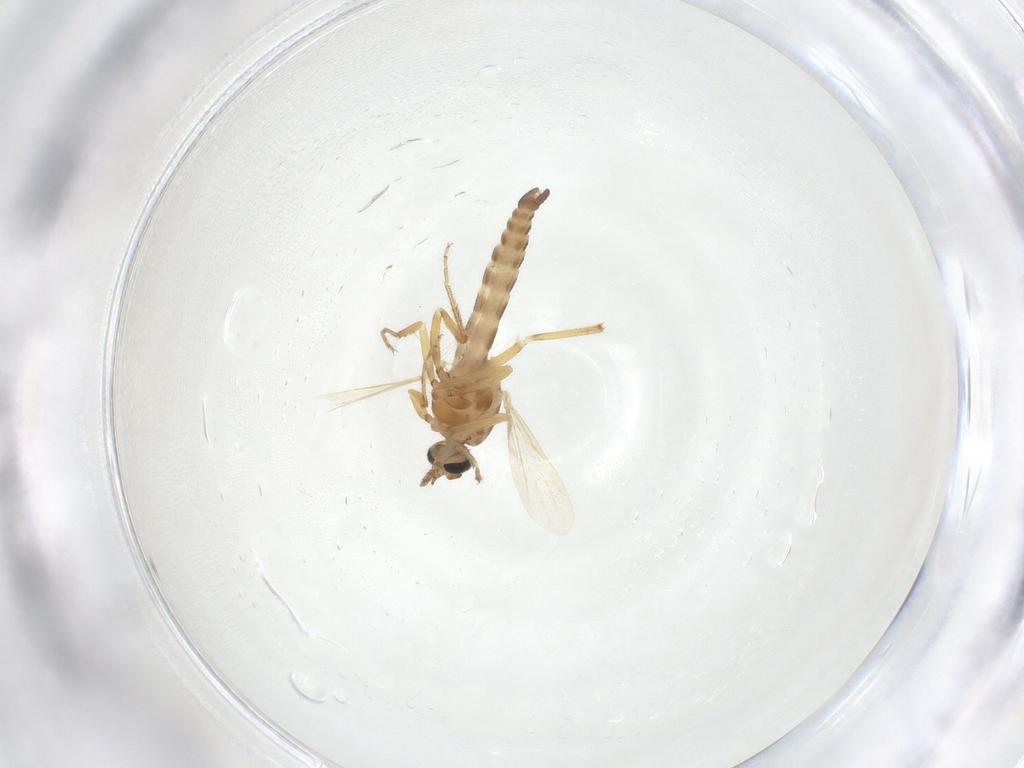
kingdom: Animalia
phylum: Arthropoda
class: Insecta
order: Diptera
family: Ceratopogonidae
